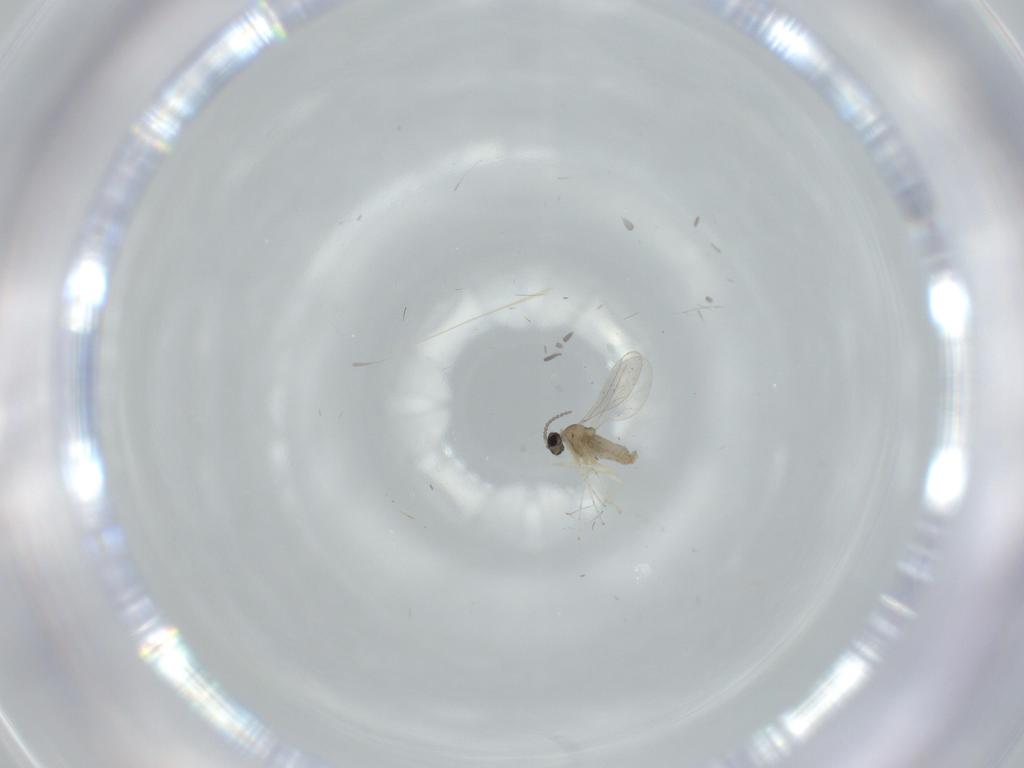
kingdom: Animalia
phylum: Arthropoda
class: Insecta
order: Diptera
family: Cecidomyiidae
